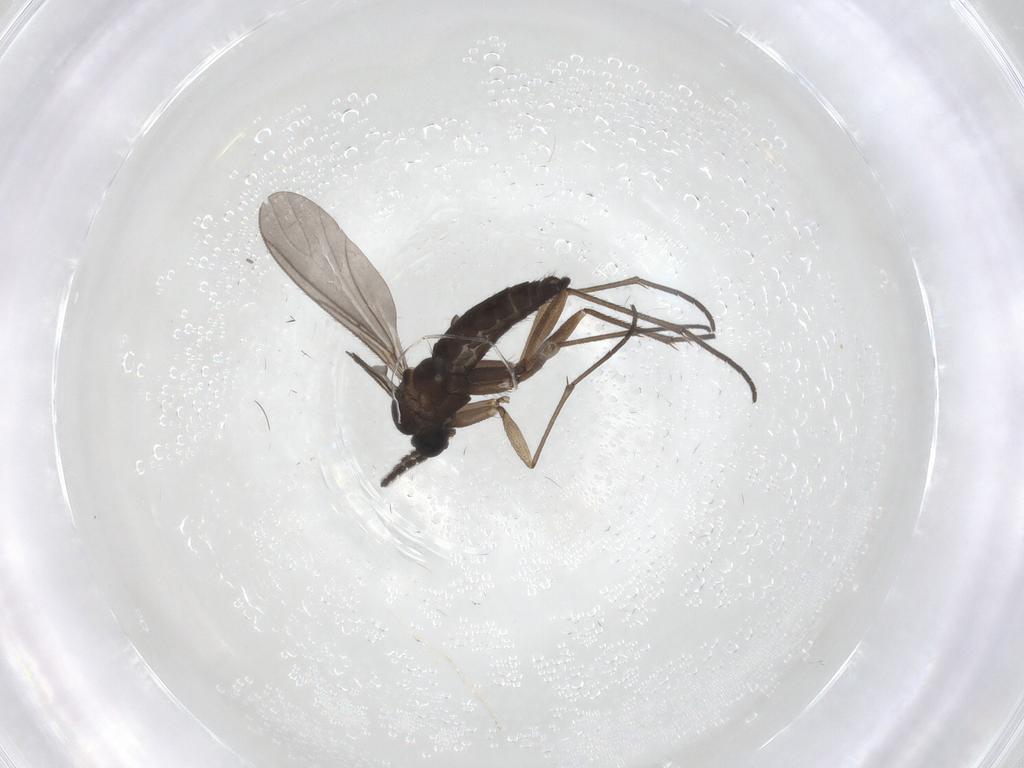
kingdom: Animalia
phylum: Arthropoda
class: Insecta
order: Diptera
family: Sciaridae
